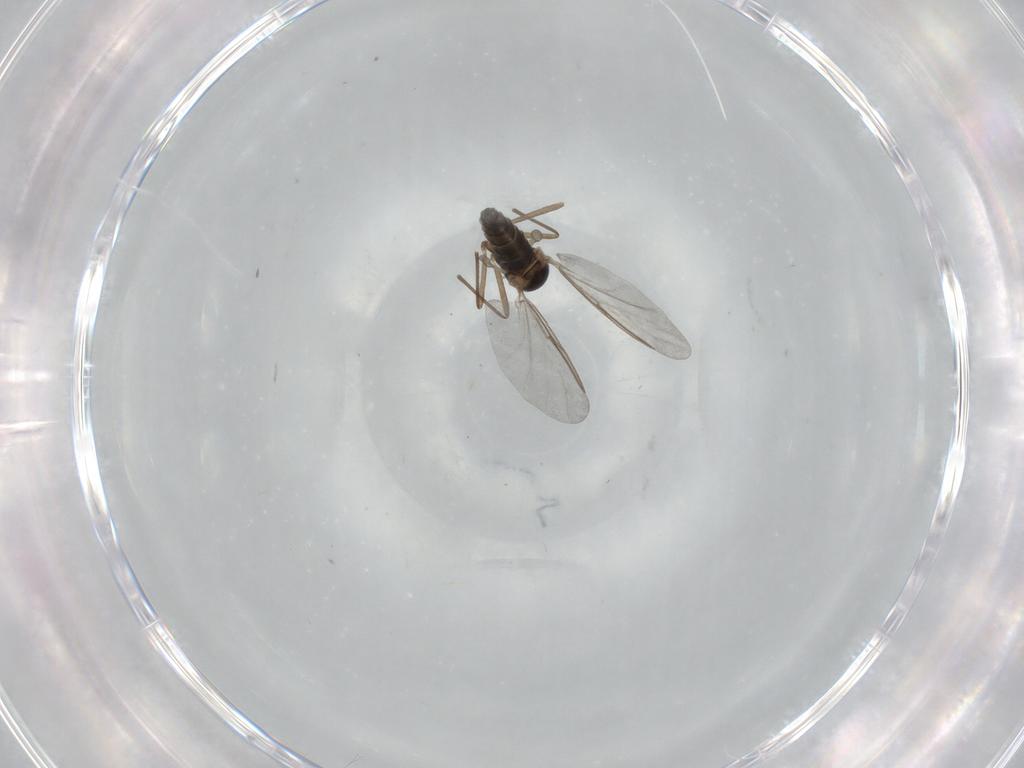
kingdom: Animalia
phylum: Arthropoda
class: Insecta
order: Diptera
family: Cecidomyiidae
